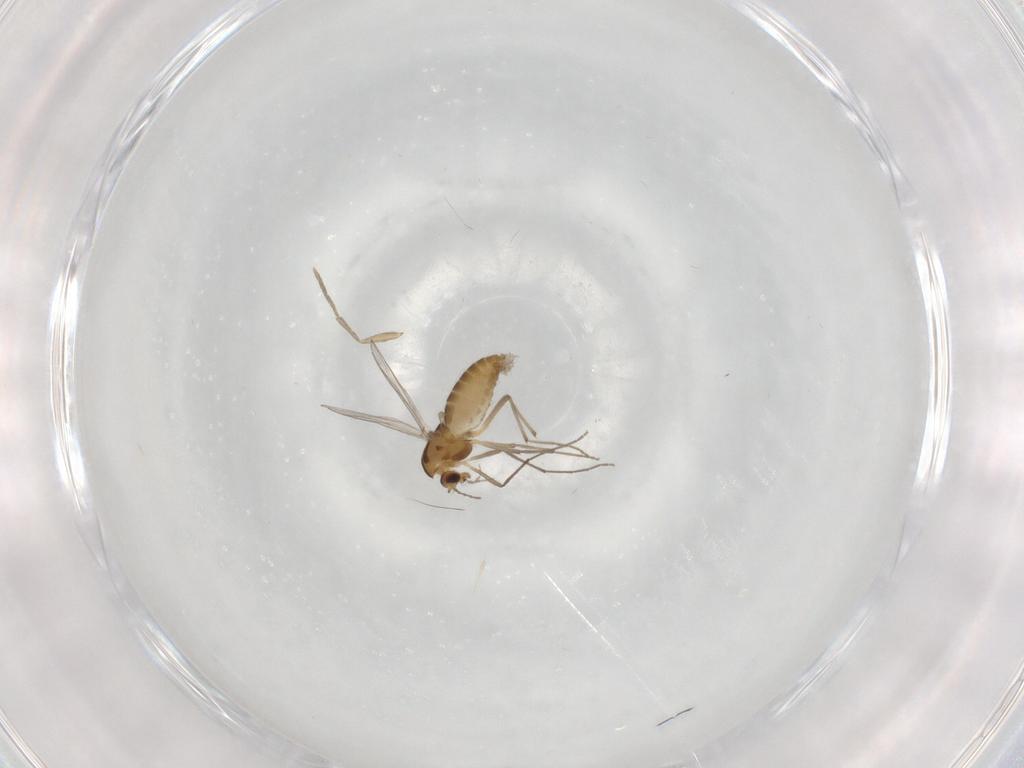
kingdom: Animalia
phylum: Arthropoda
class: Insecta
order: Diptera
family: Chironomidae
